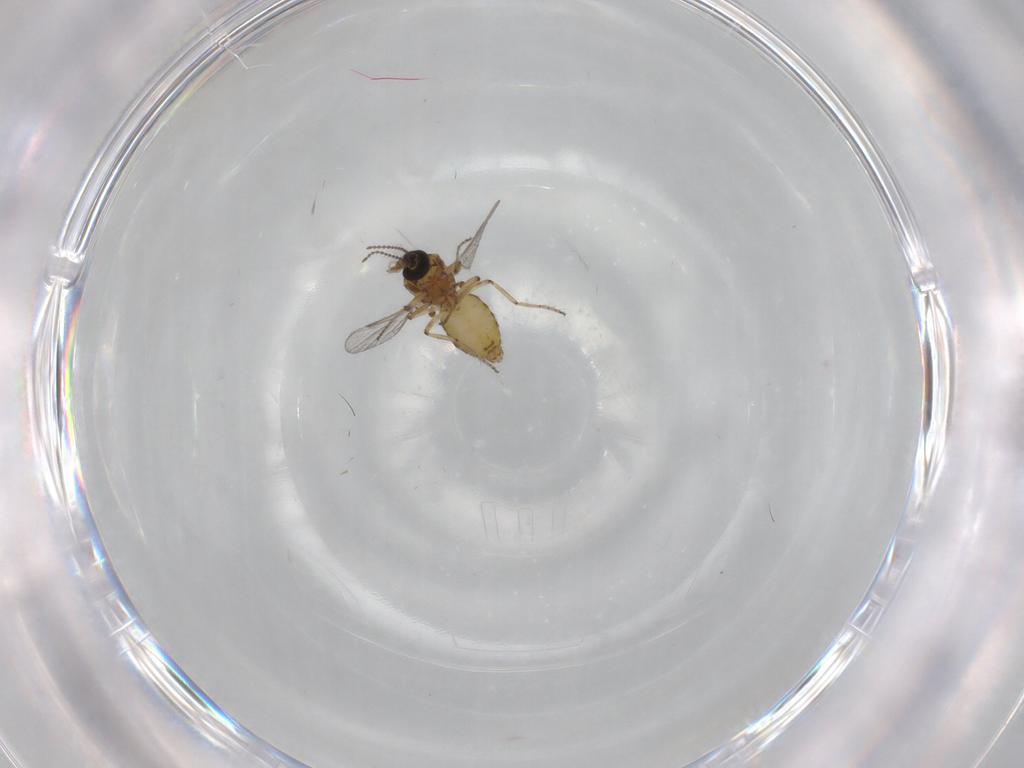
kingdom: Animalia
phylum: Arthropoda
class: Insecta
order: Diptera
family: Ceratopogonidae
